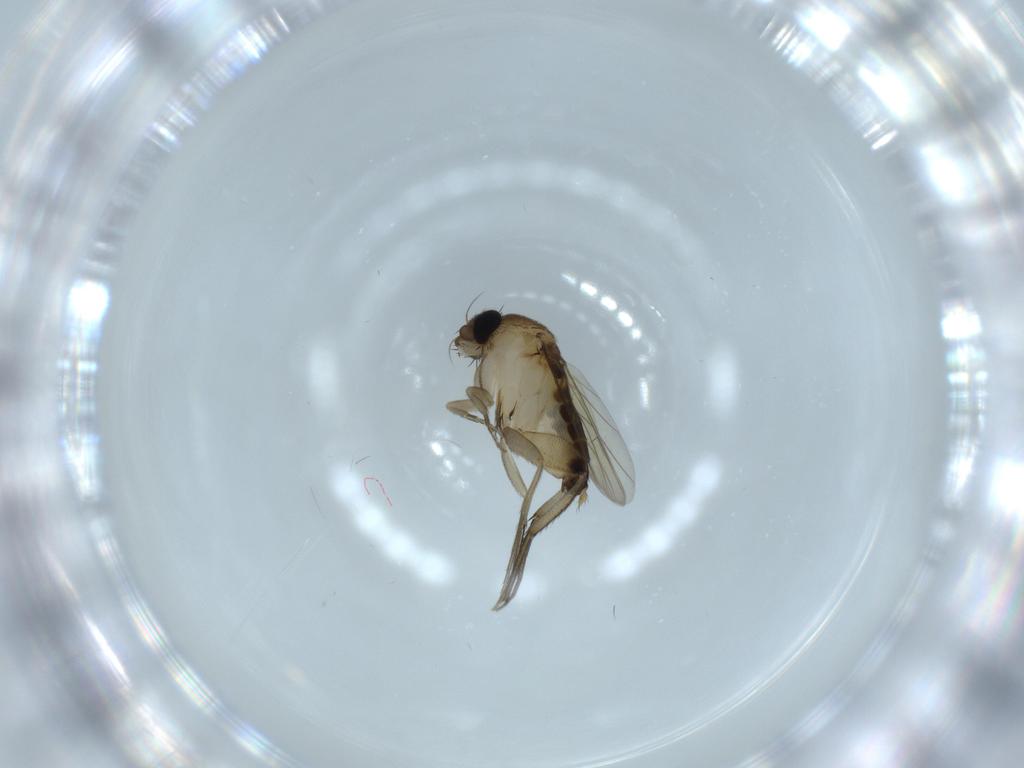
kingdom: Animalia
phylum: Arthropoda
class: Insecta
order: Diptera
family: Phoridae
